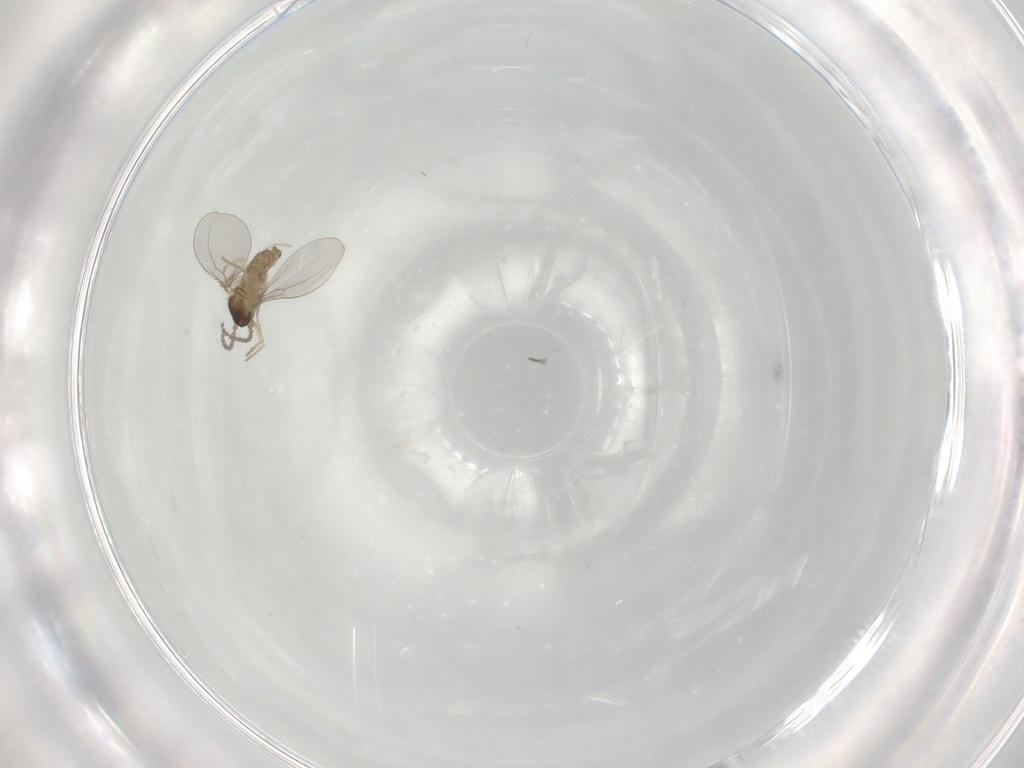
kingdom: Animalia
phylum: Arthropoda
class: Insecta
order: Diptera
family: Cecidomyiidae
